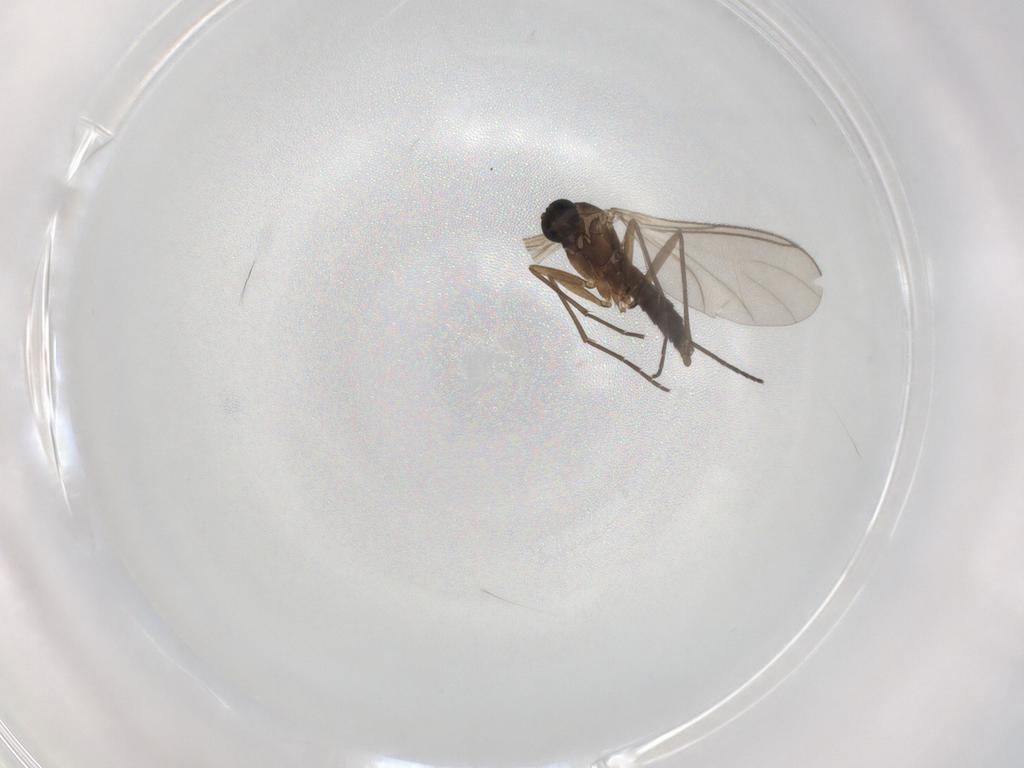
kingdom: Animalia
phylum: Arthropoda
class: Insecta
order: Diptera
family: Sciaridae
